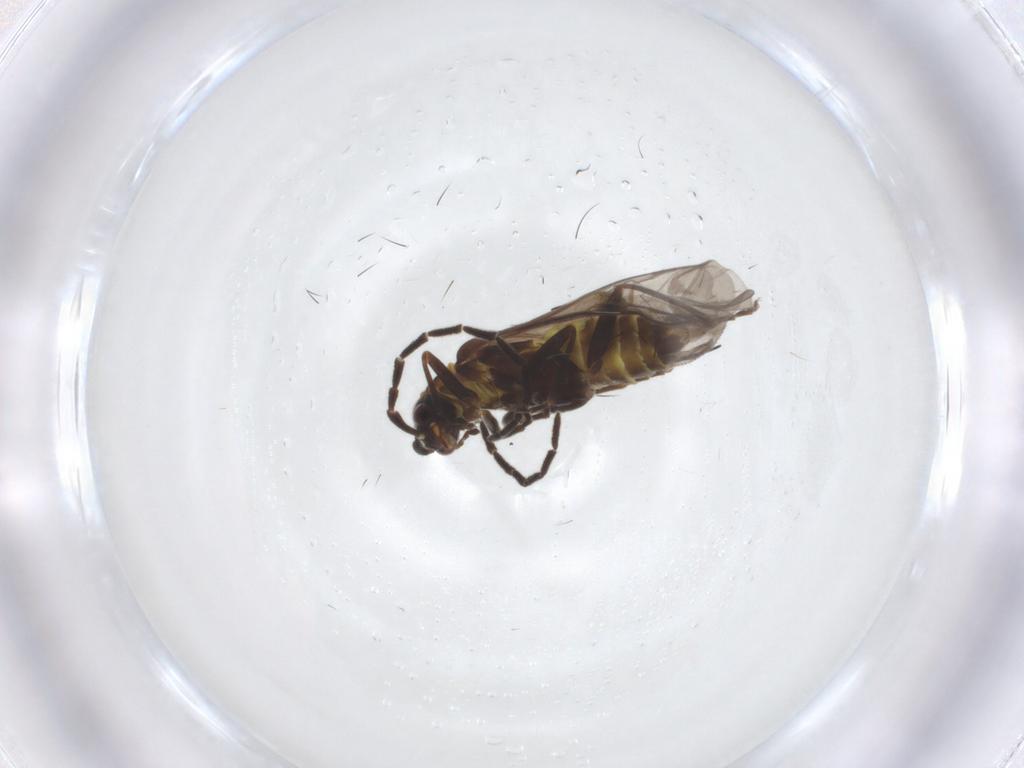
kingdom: Animalia
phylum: Arthropoda
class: Insecta
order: Coleoptera
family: Cantharidae
